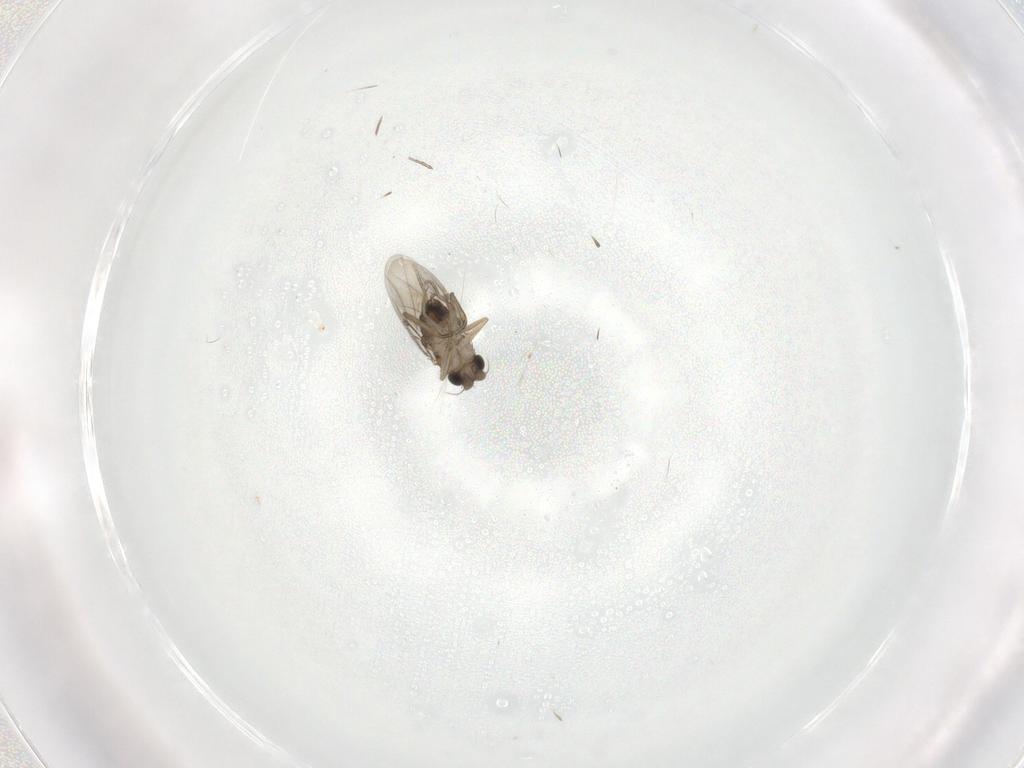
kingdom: Animalia
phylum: Arthropoda
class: Insecta
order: Diptera
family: Phoridae
